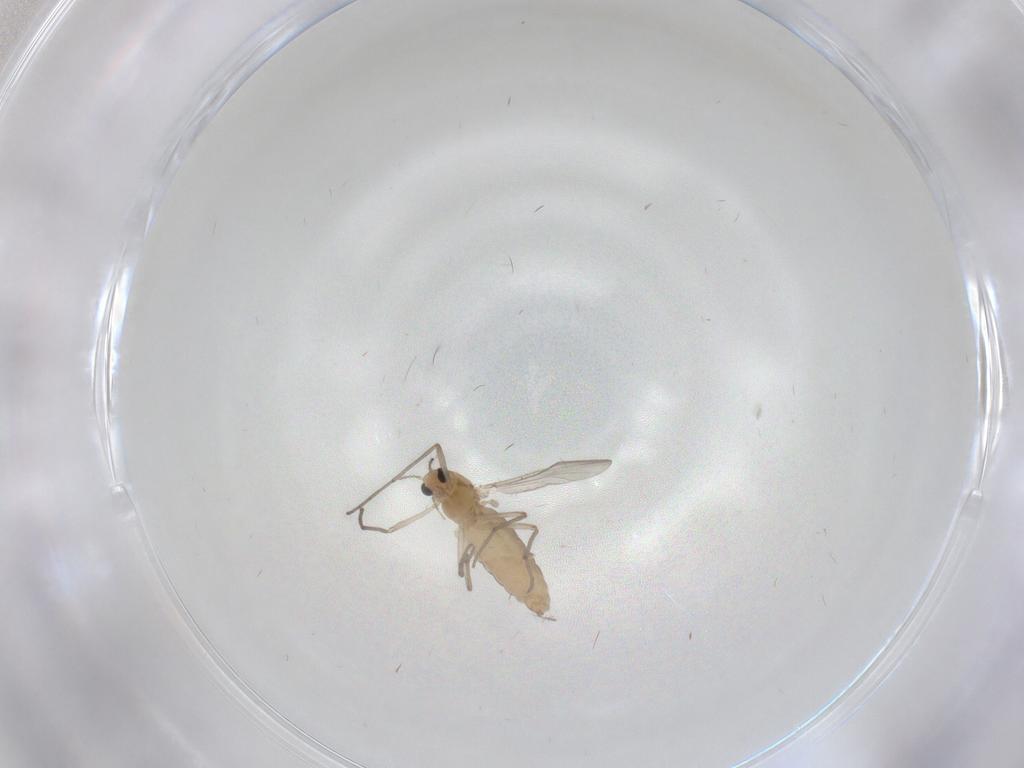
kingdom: Animalia
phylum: Arthropoda
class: Insecta
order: Diptera
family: Chironomidae
